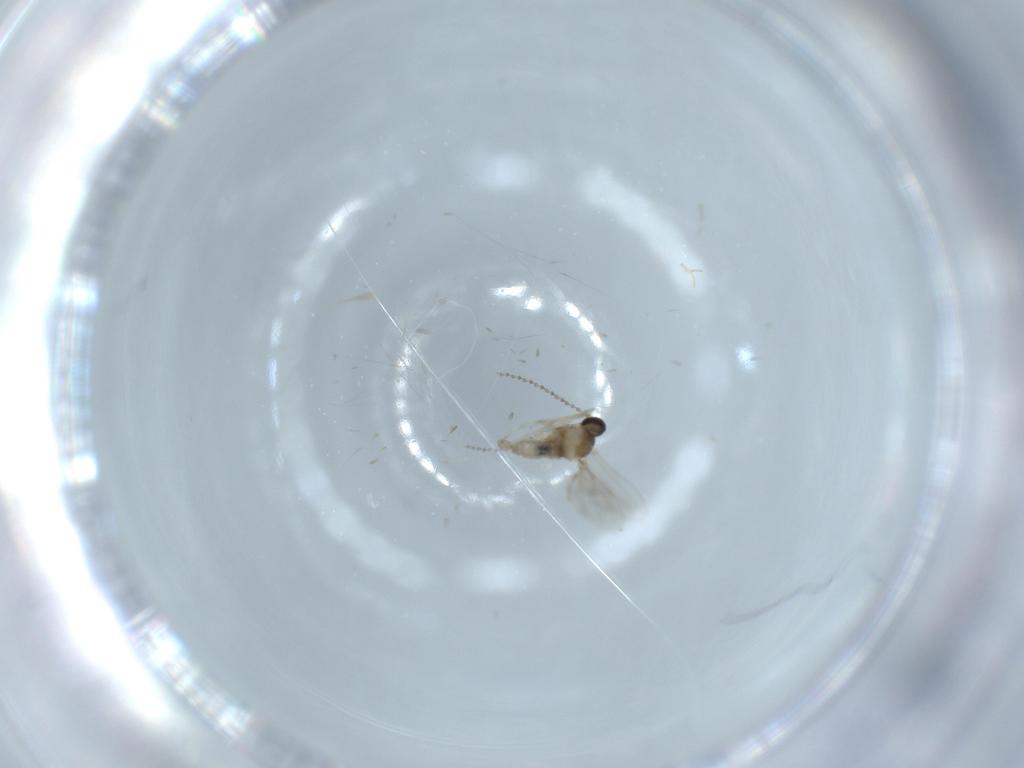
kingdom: Animalia
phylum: Arthropoda
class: Insecta
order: Diptera
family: Cecidomyiidae
